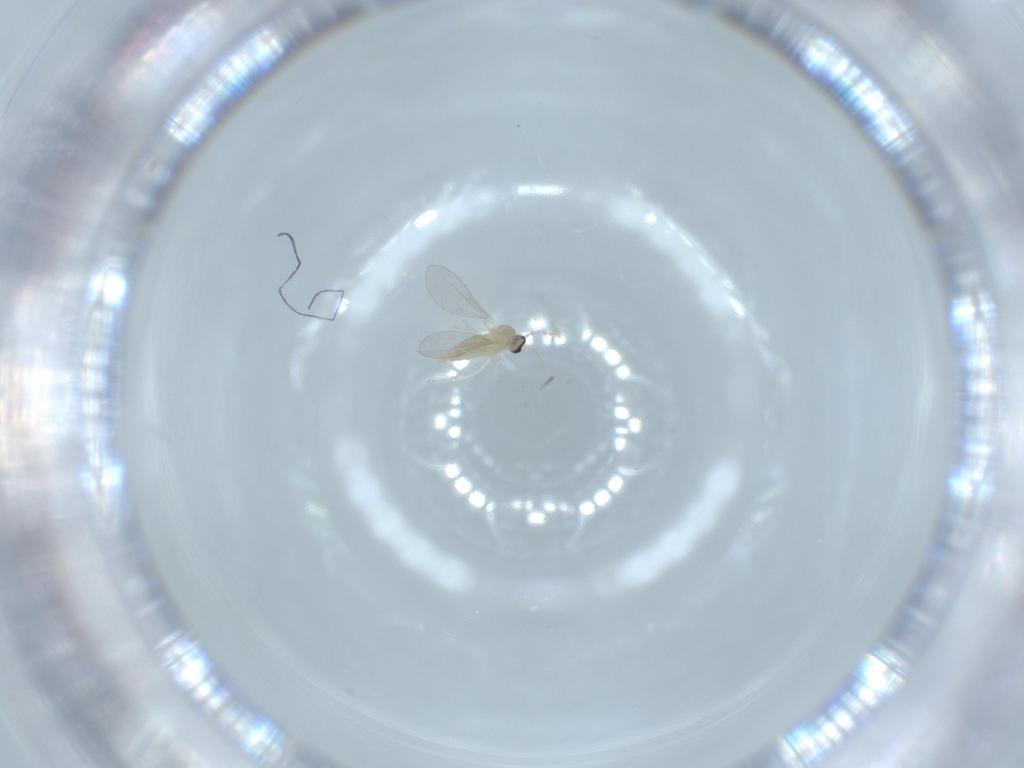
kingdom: Animalia
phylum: Arthropoda
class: Insecta
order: Diptera
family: Cecidomyiidae
